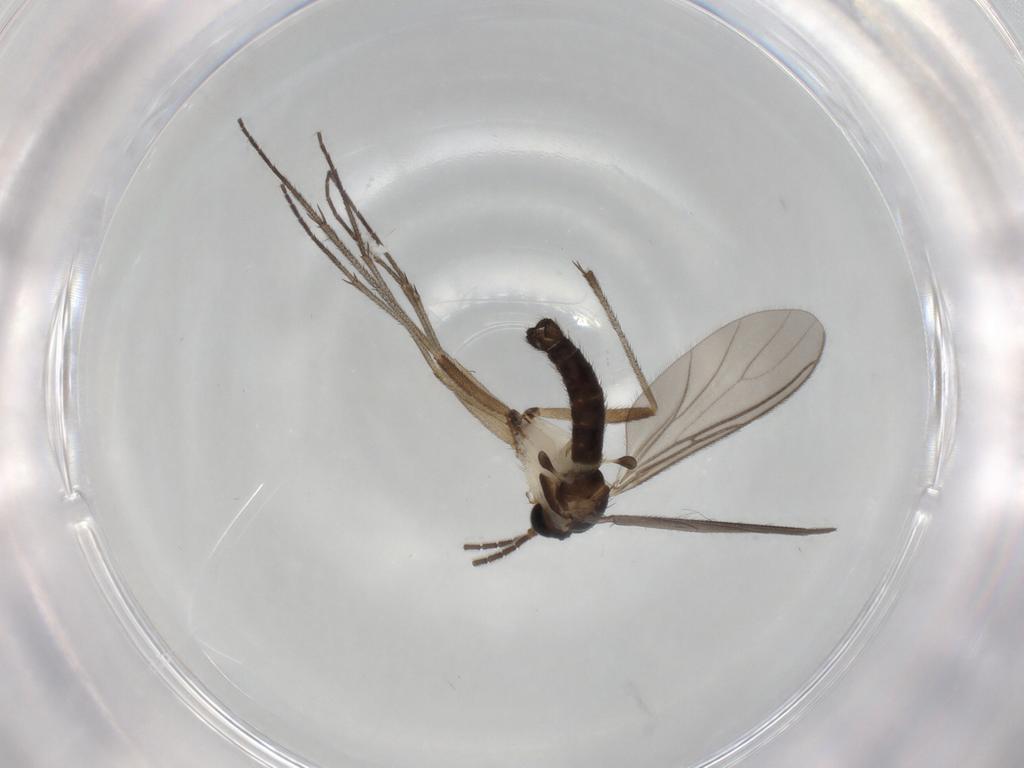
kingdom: Animalia
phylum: Arthropoda
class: Insecta
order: Diptera
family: Sciaridae
